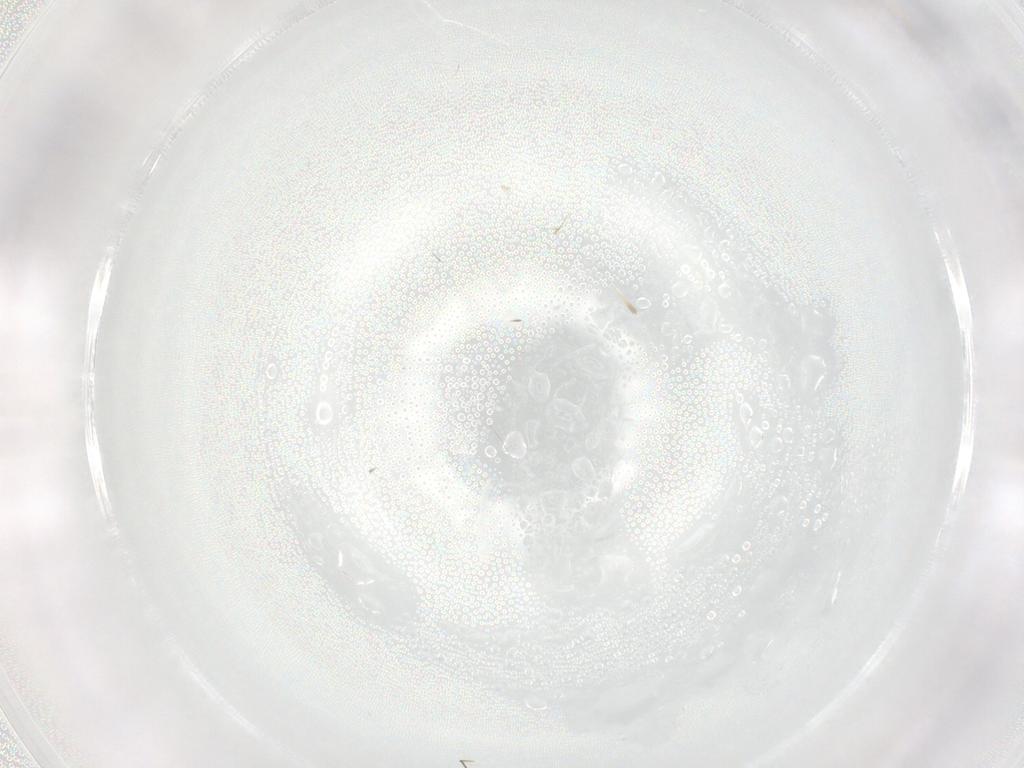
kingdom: Animalia
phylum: Arthropoda
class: Insecta
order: Diptera
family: Cecidomyiidae
